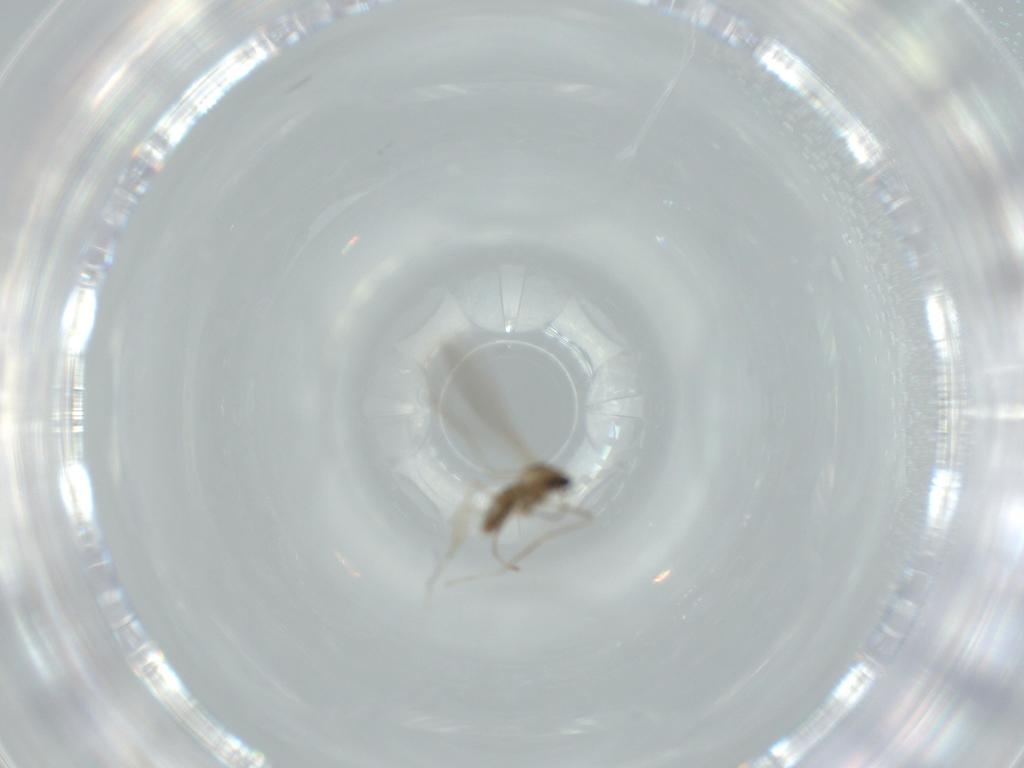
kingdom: Animalia
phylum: Arthropoda
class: Insecta
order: Diptera
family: Cecidomyiidae
